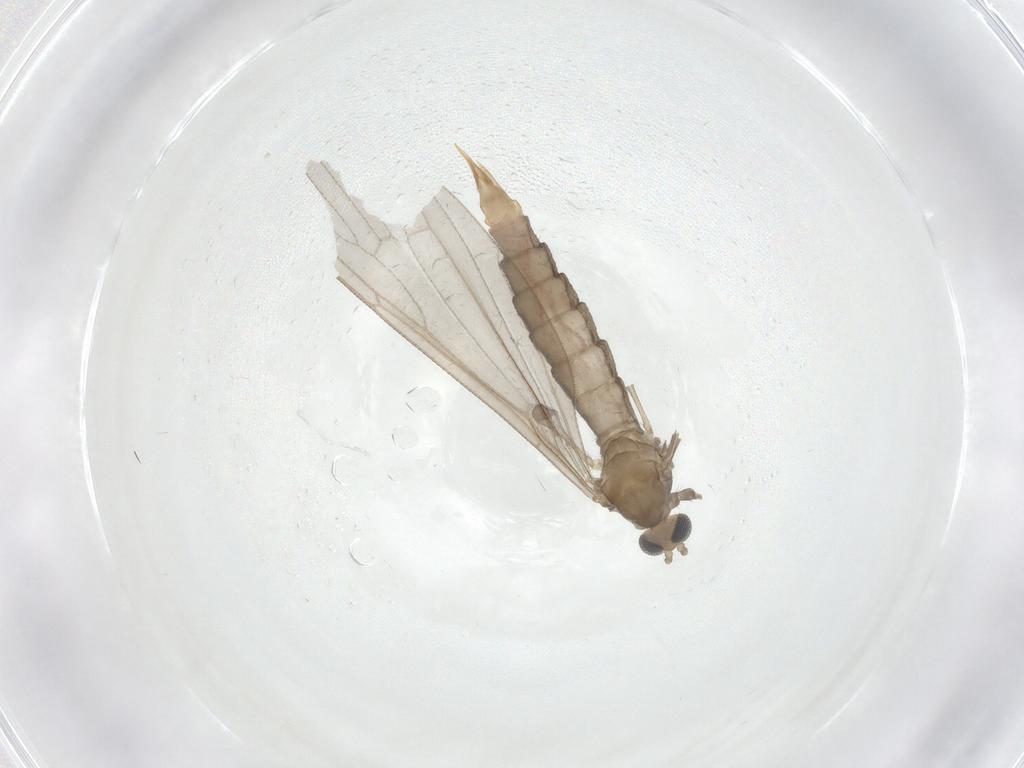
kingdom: Animalia
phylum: Arthropoda
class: Insecta
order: Diptera
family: Limoniidae
